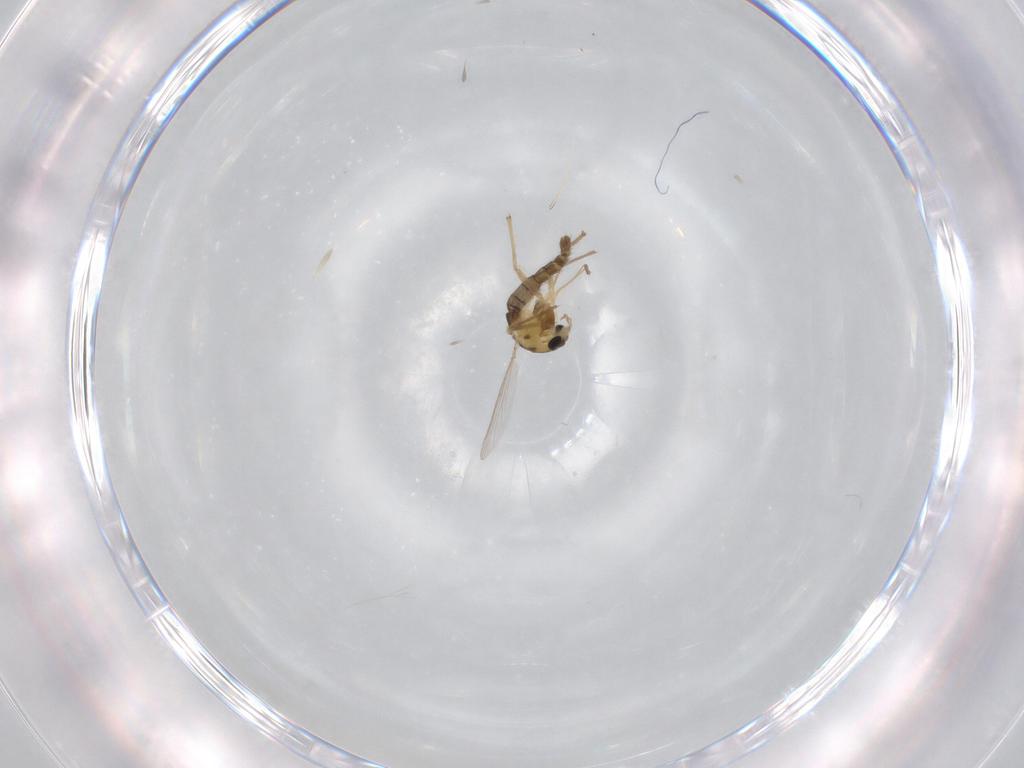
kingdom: Animalia
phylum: Arthropoda
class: Insecta
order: Diptera
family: Chironomidae
